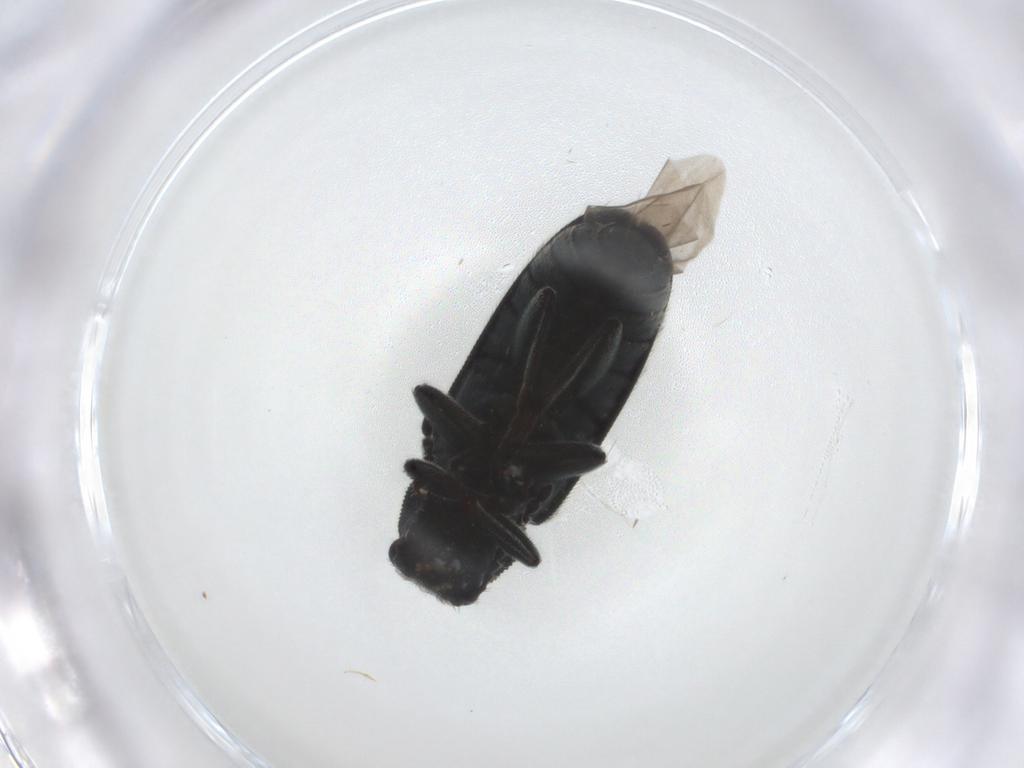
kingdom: Animalia
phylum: Arthropoda
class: Insecta
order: Coleoptera
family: Melyridae
